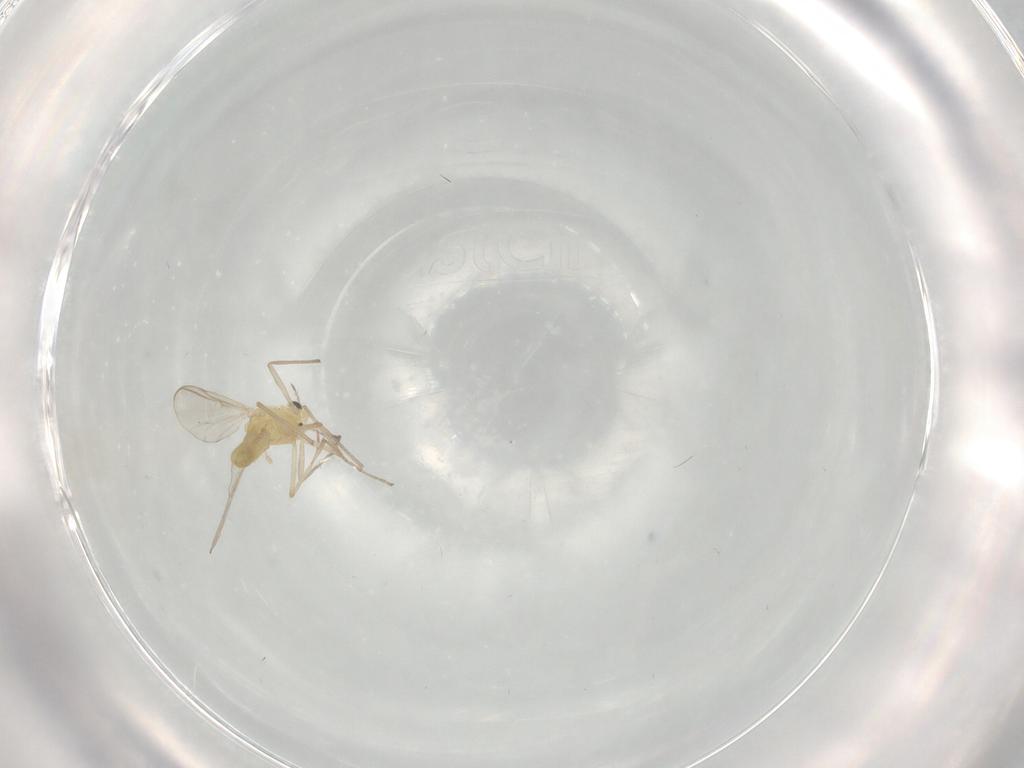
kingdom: Animalia
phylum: Arthropoda
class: Insecta
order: Diptera
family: Chironomidae
